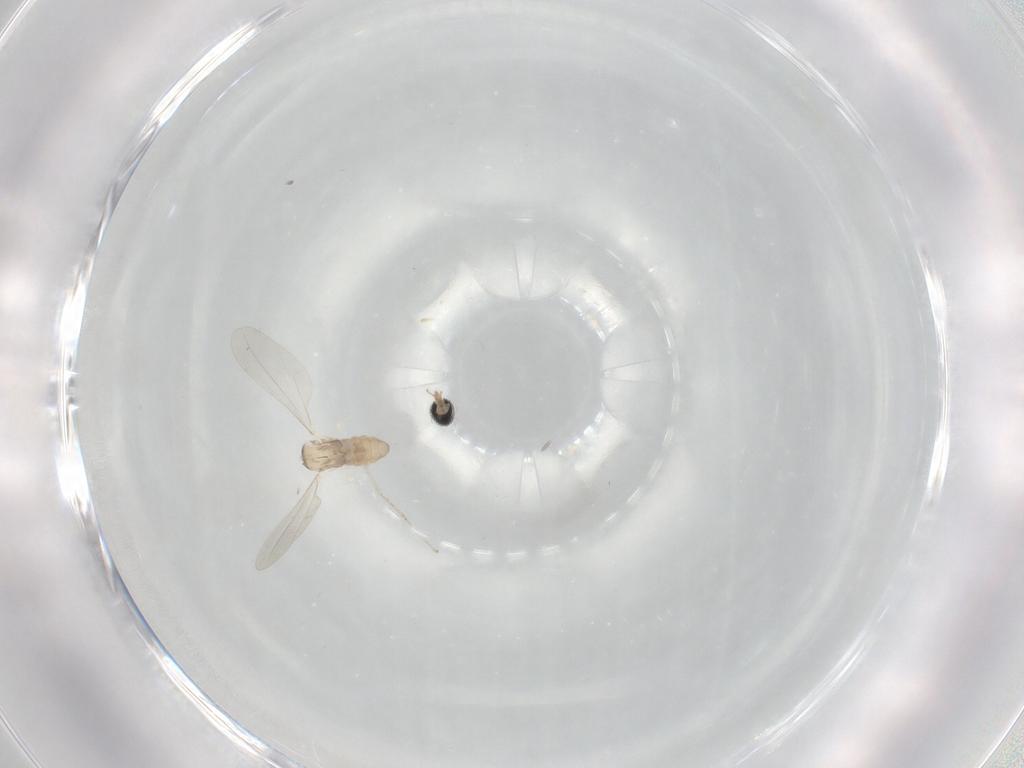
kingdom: Animalia
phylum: Arthropoda
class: Insecta
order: Diptera
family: Cecidomyiidae
